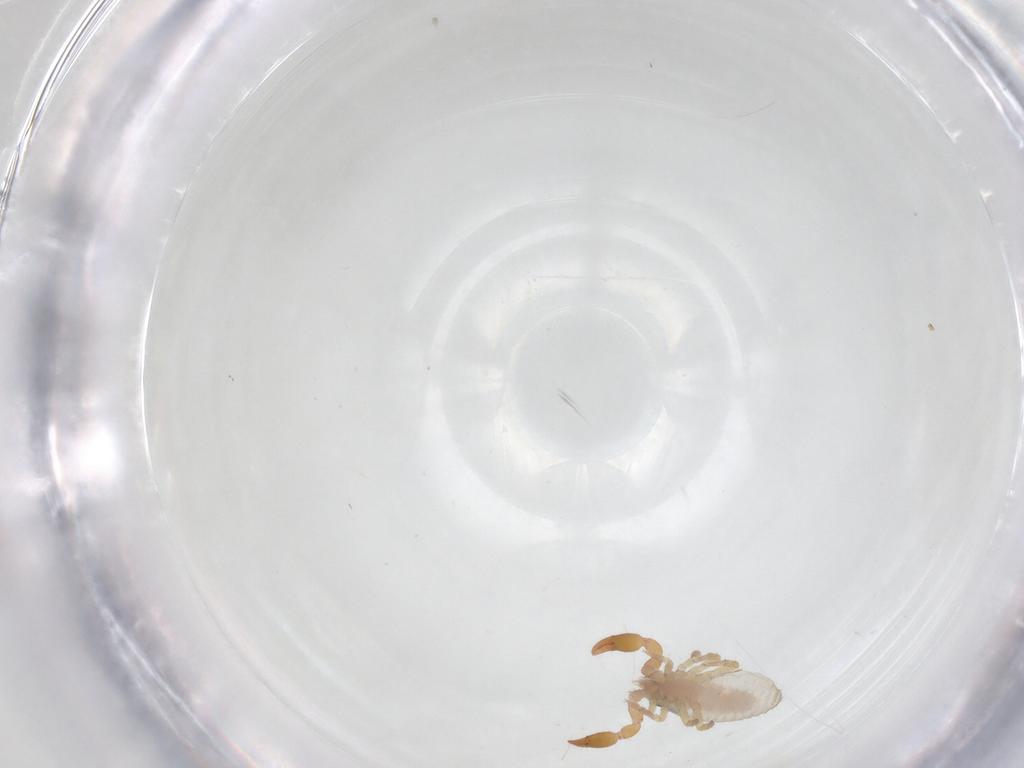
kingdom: Animalia
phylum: Arthropoda
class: Arachnida
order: Pseudoscorpiones
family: Chernetidae
